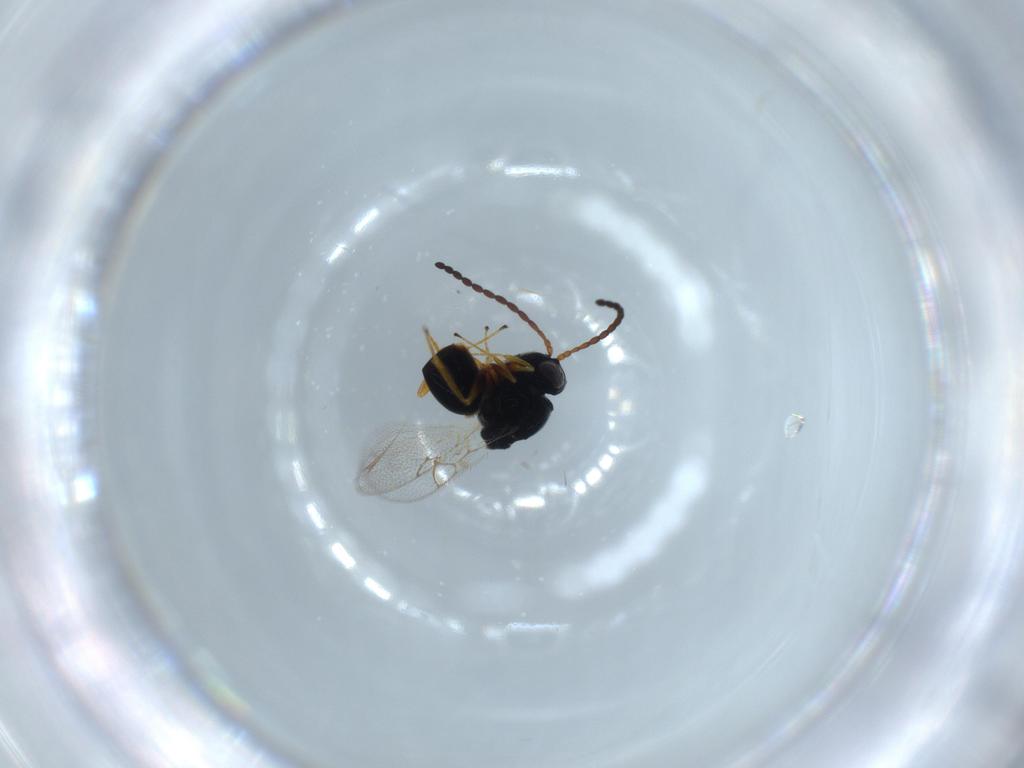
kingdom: Animalia
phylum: Arthropoda
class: Insecta
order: Hymenoptera
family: Figitidae
